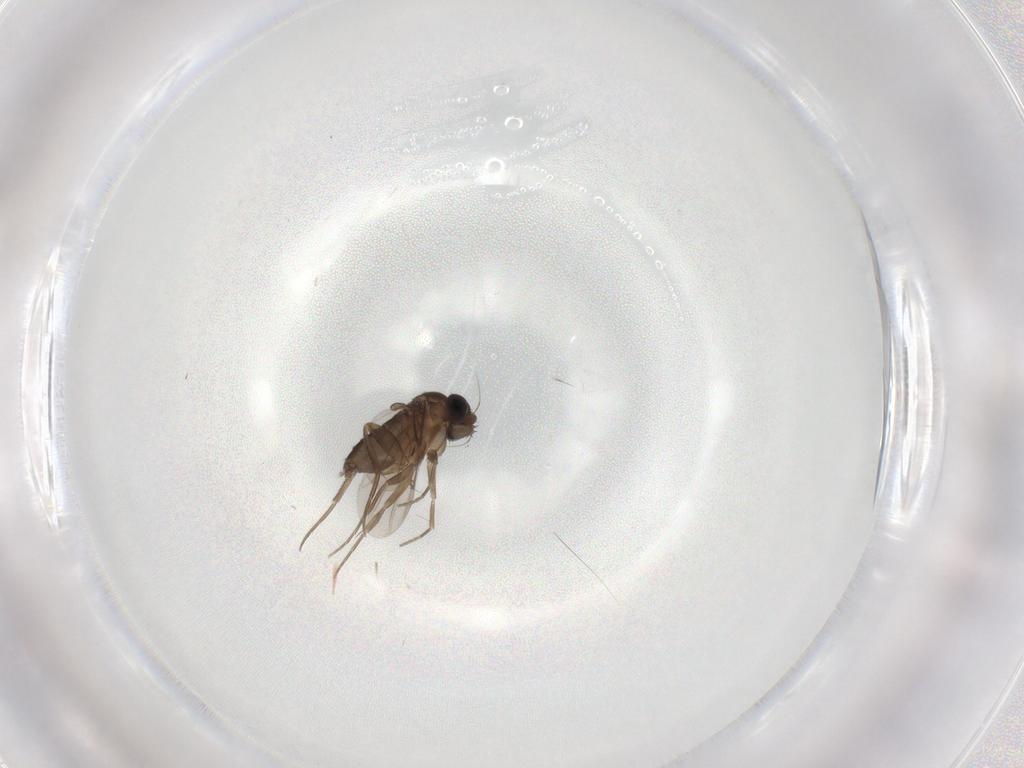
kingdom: Animalia
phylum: Arthropoda
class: Insecta
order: Diptera
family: Phoridae
